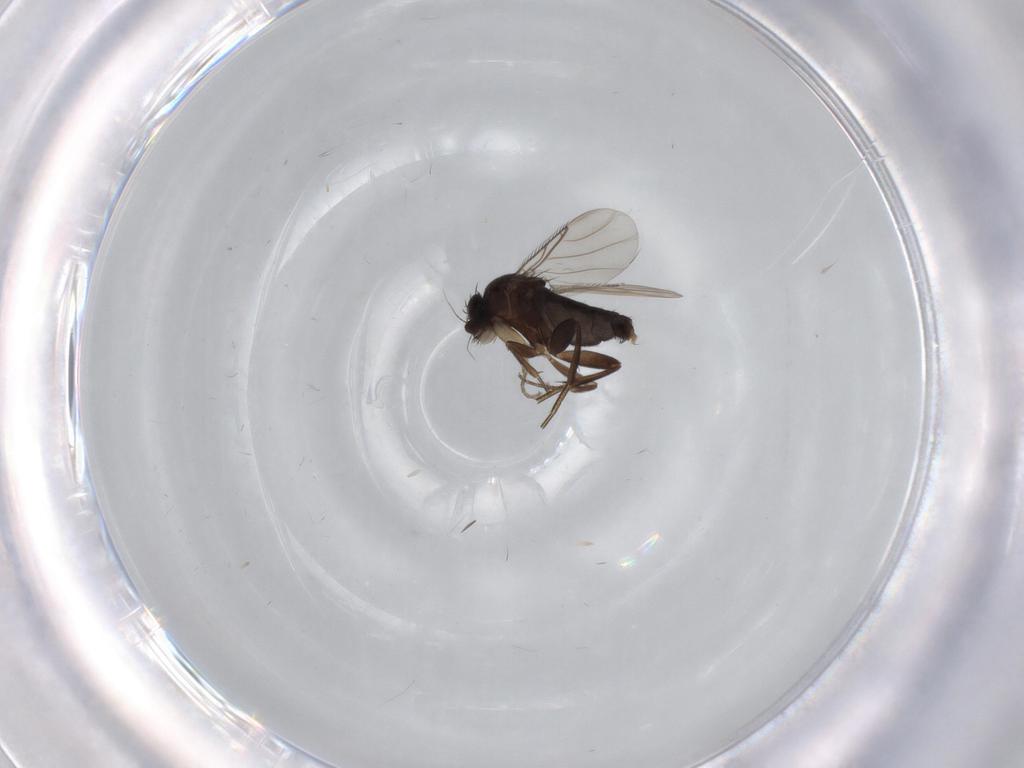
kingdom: Animalia
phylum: Arthropoda
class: Insecta
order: Diptera
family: Phoridae
